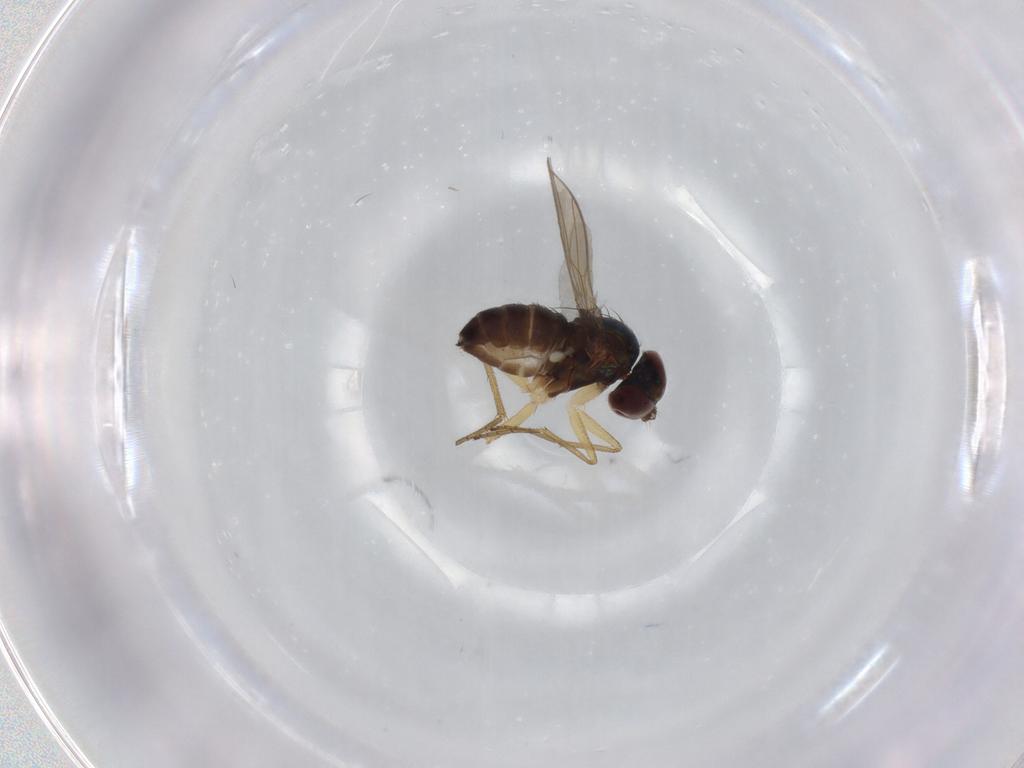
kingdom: Animalia
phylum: Arthropoda
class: Insecta
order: Diptera
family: Dolichopodidae
